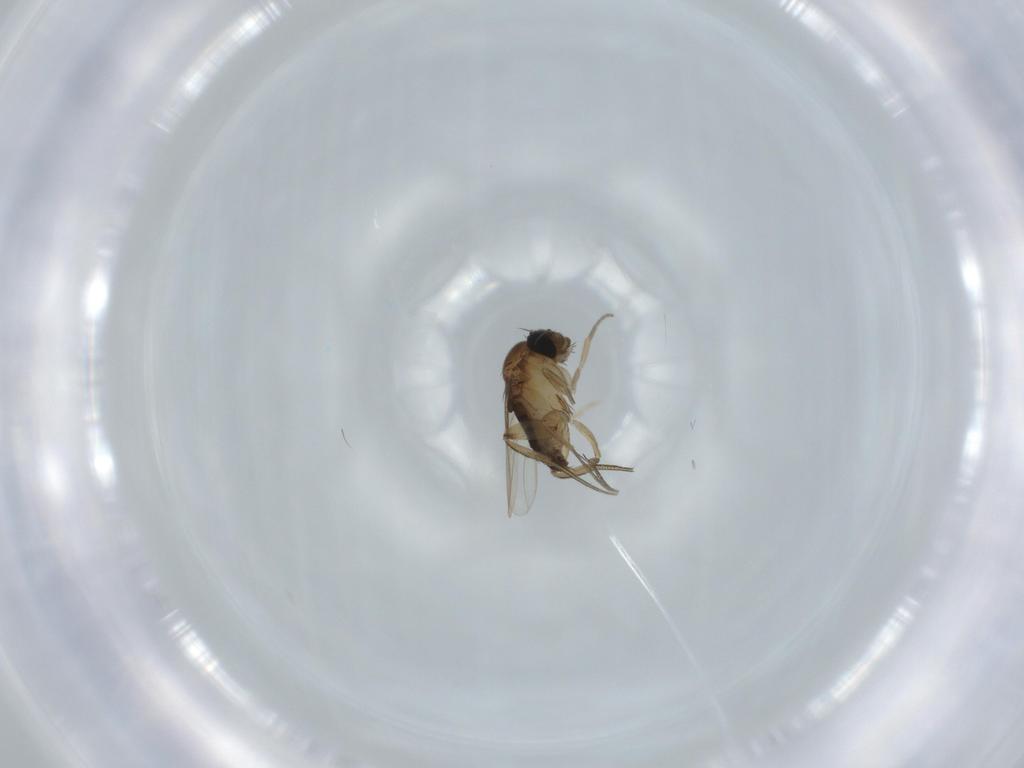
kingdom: Animalia
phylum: Arthropoda
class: Insecta
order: Diptera
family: Phoridae
